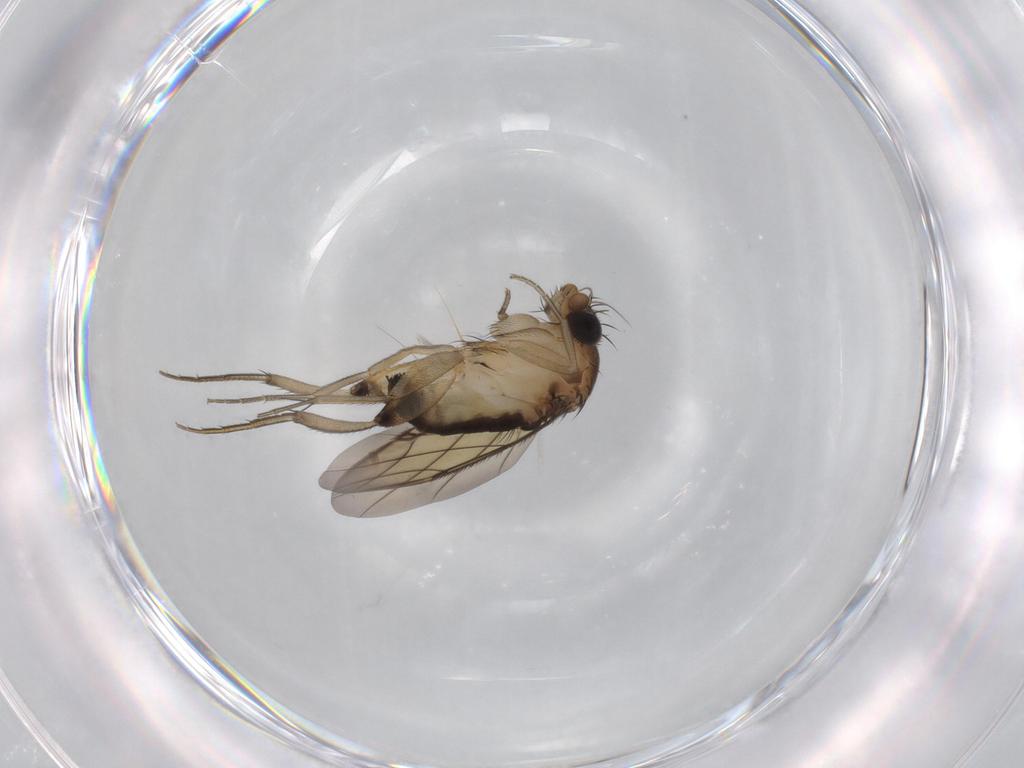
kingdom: Animalia
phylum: Arthropoda
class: Insecta
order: Diptera
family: Phoridae
